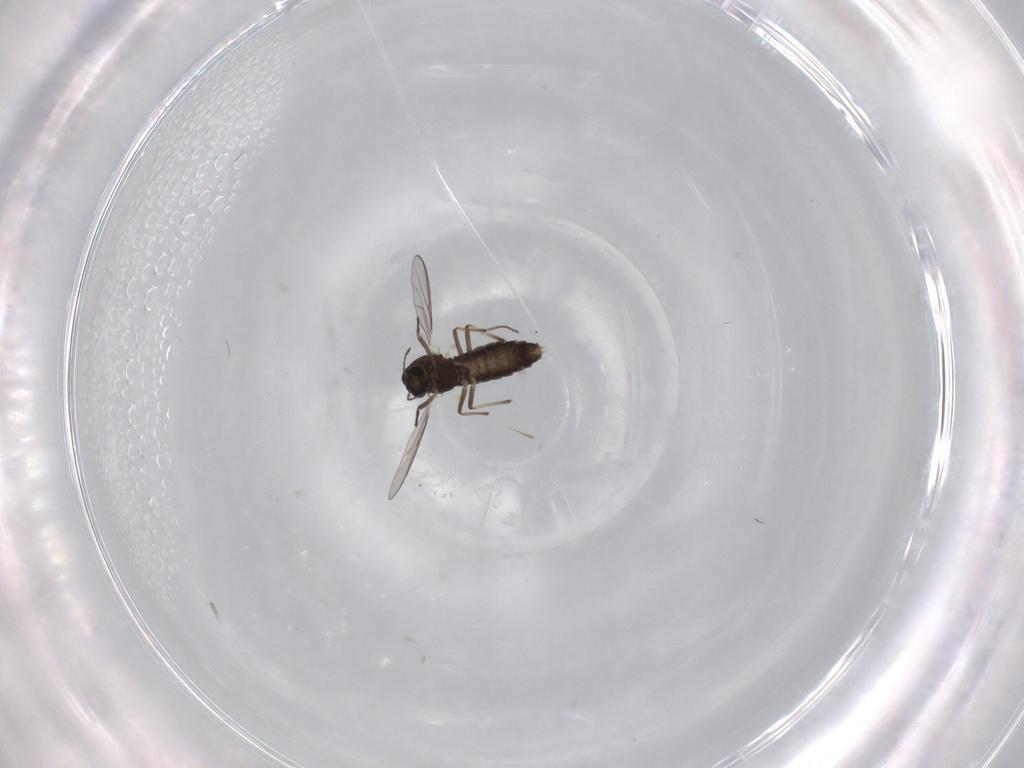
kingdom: Animalia
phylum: Arthropoda
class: Insecta
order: Diptera
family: Chironomidae
